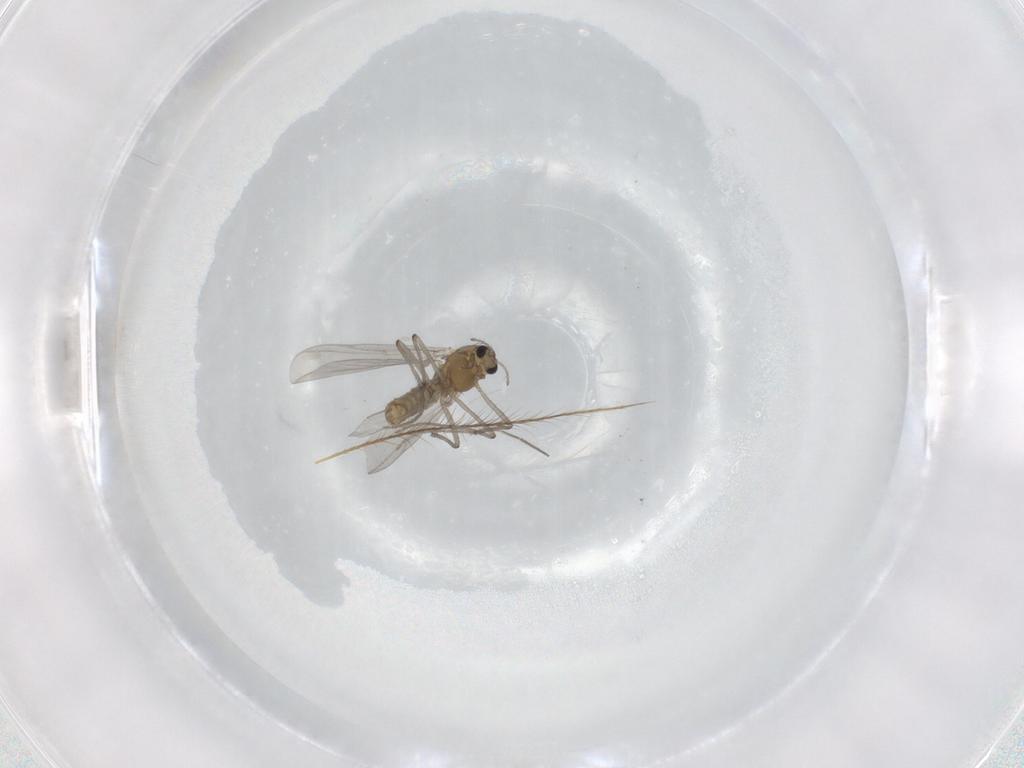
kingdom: Animalia
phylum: Arthropoda
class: Insecta
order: Diptera
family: Chironomidae
